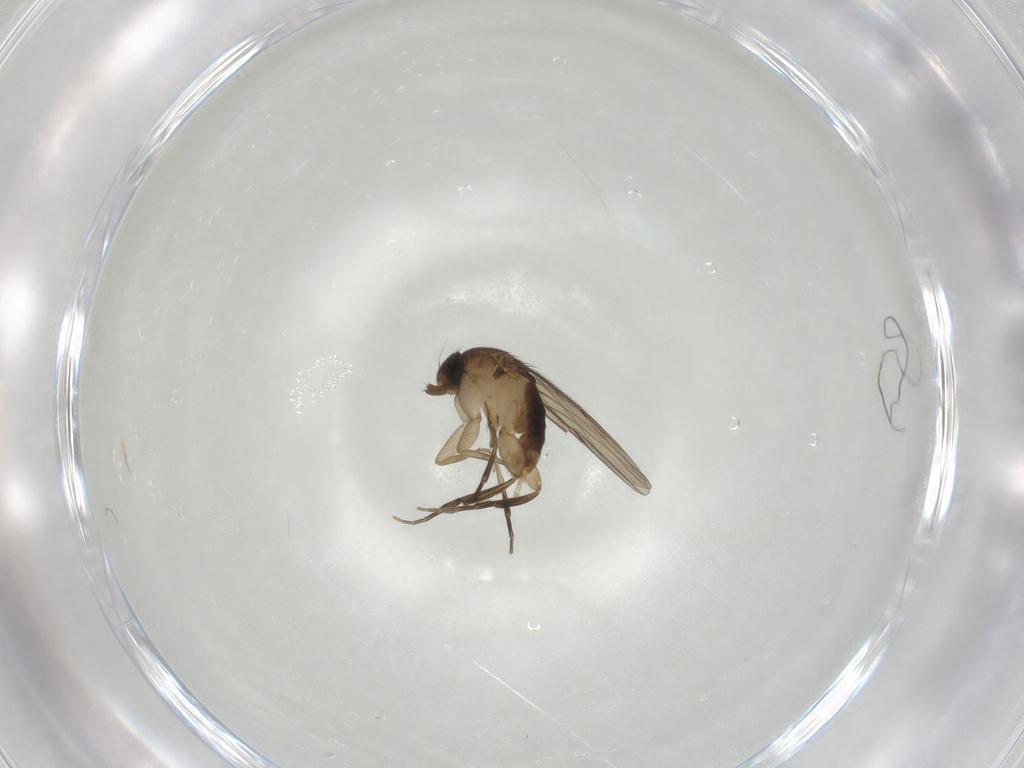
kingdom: Animalia
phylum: Arthropoda
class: Insecta
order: Diptera
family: Phoridae
